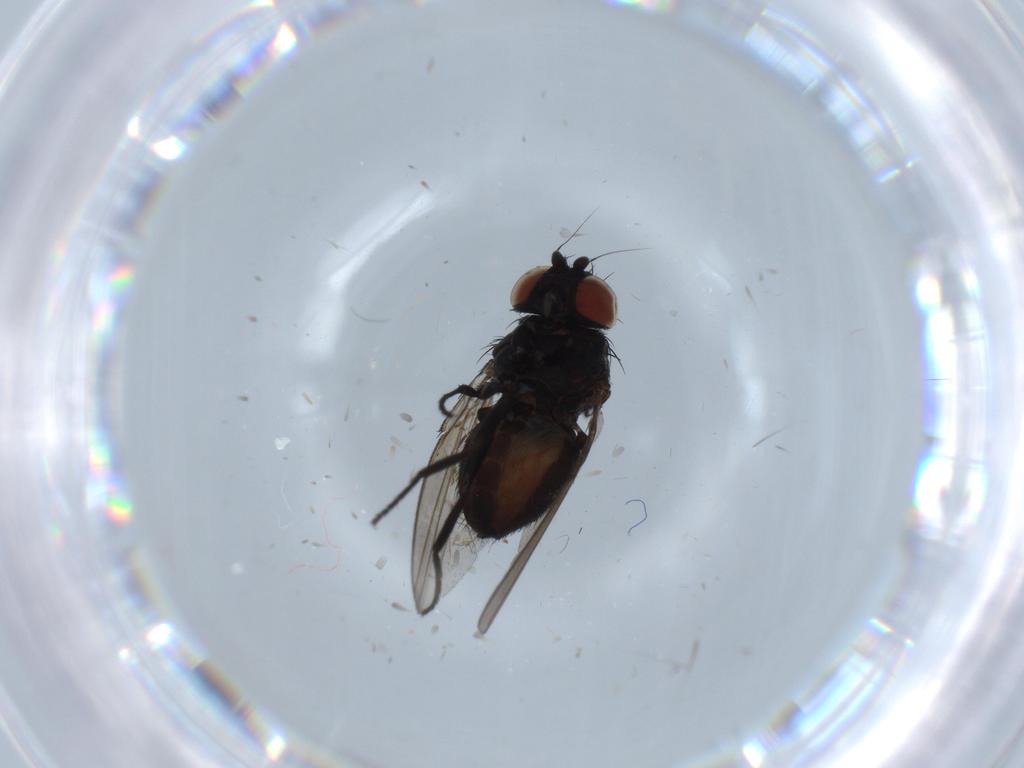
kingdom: Animalia
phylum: Arthropoda
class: Insecta
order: Diptera
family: Milichiidae
